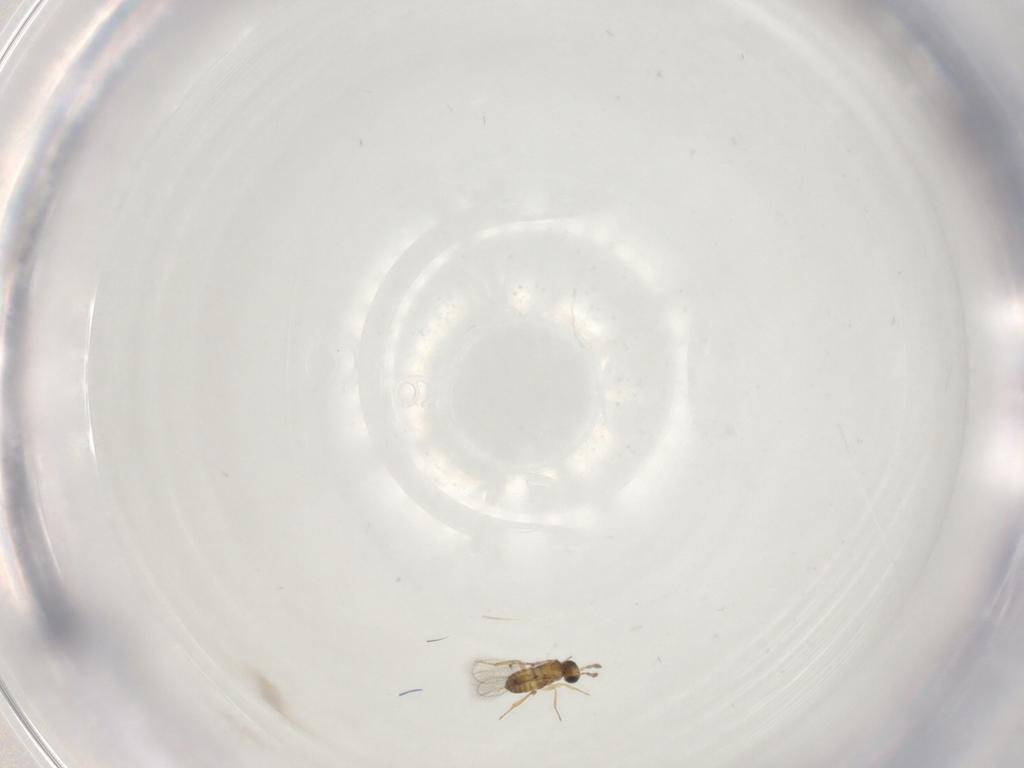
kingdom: Animalia
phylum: Arthropoda
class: Insecta
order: Hymenoptera
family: Trichogrammatidae
